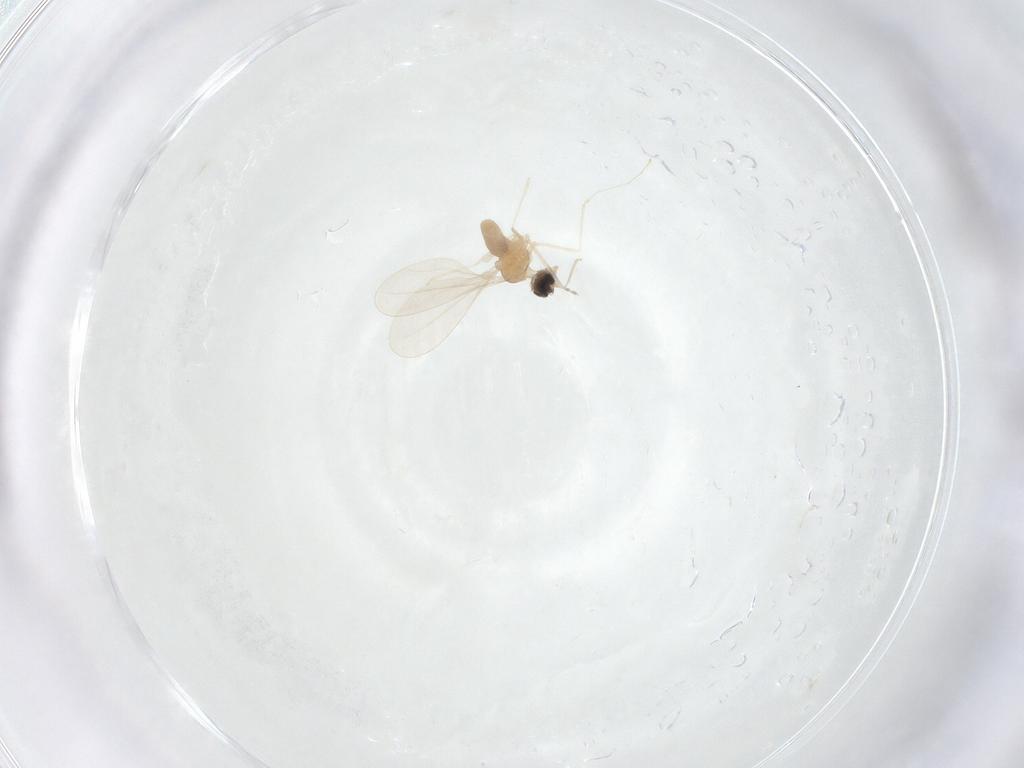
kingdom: Animalia
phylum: Arthropoda
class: Insecta
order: Diptera
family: Cecidomyiidae
